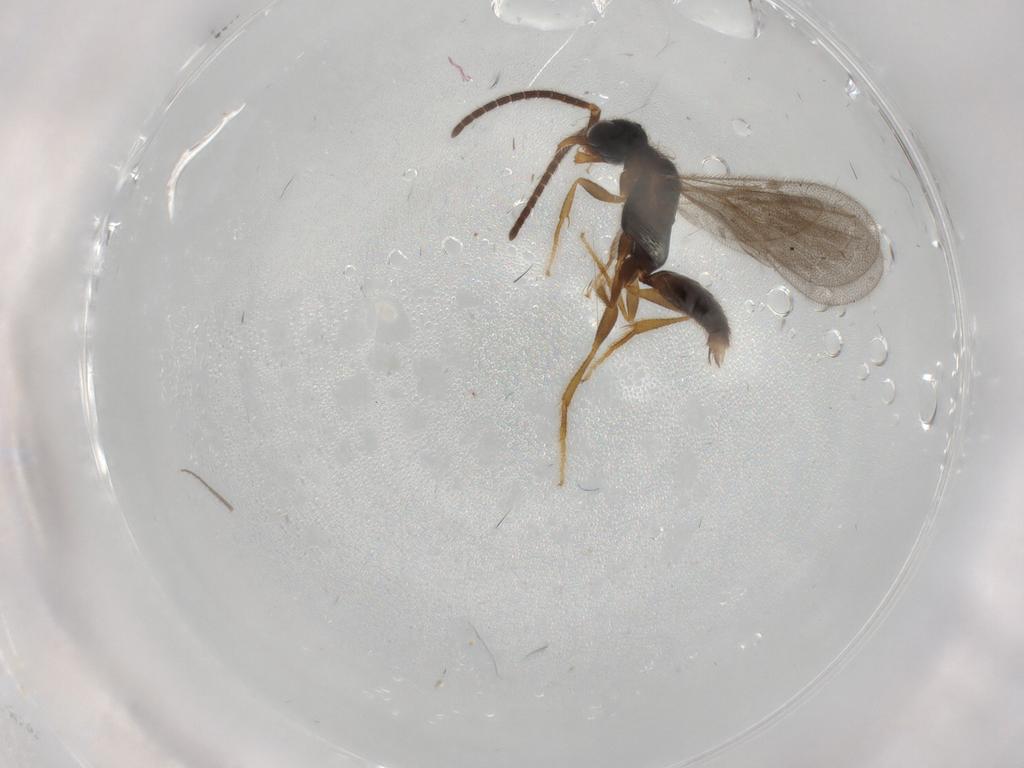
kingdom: Animalia
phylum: Arthropoda
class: Insecta
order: Hymenoptera
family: Bethylidae
